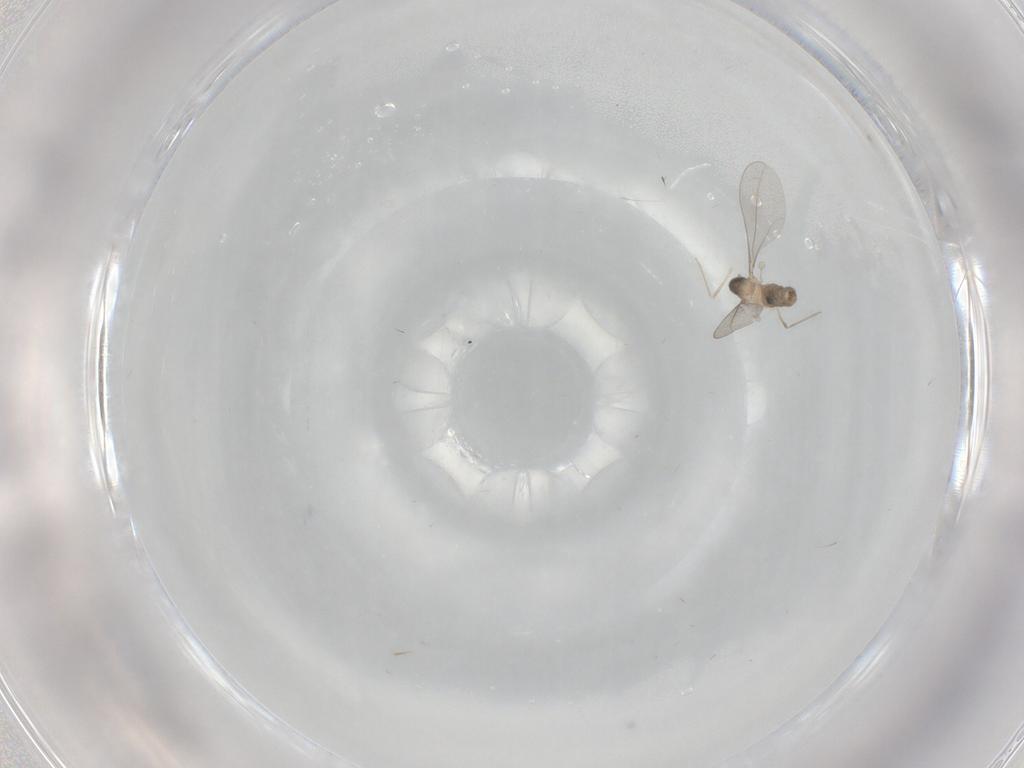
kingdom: Animalia
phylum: Arthropoda
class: Insecta
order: Diptera
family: Cecidomyiidae
